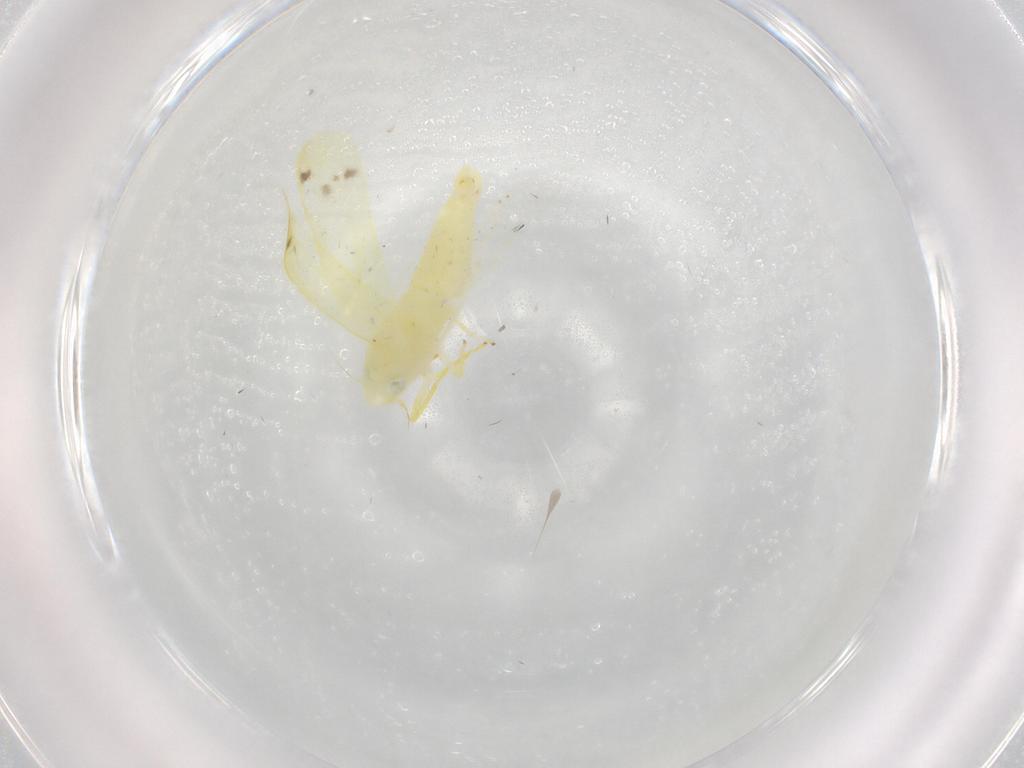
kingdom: Animalia
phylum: Arthropoda
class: Insecta
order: Hemiptera
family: Cicadellidae
